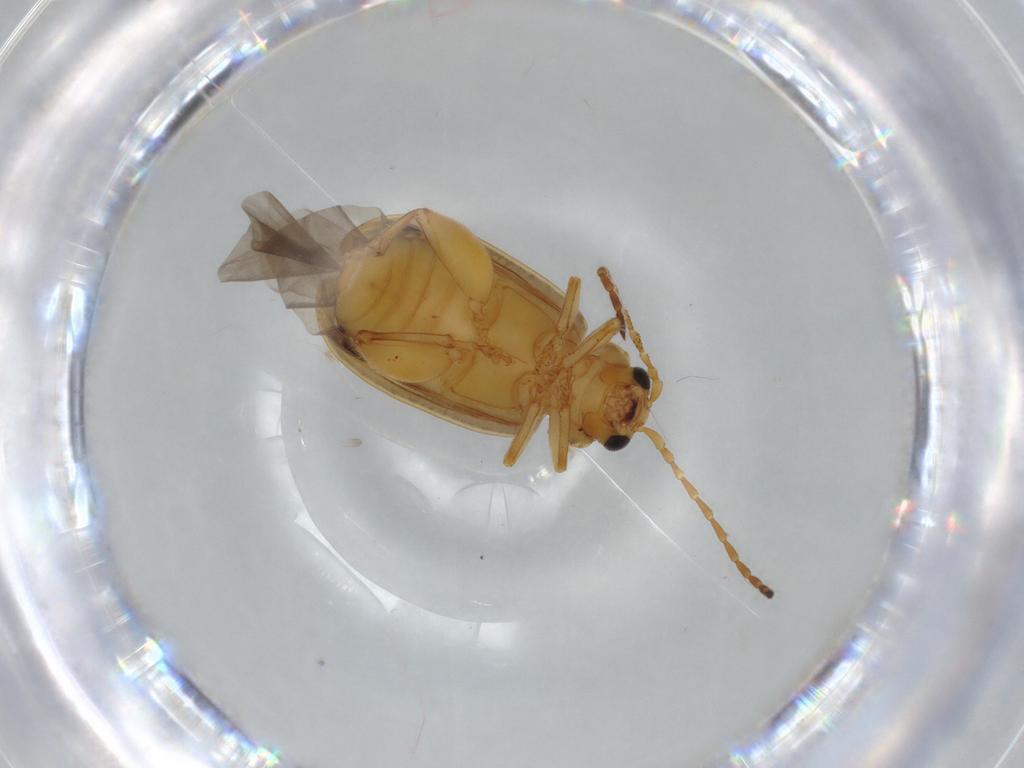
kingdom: Animalia
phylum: Arthropoda
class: Insecta
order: Coleoptera
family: Chrysomelidae
